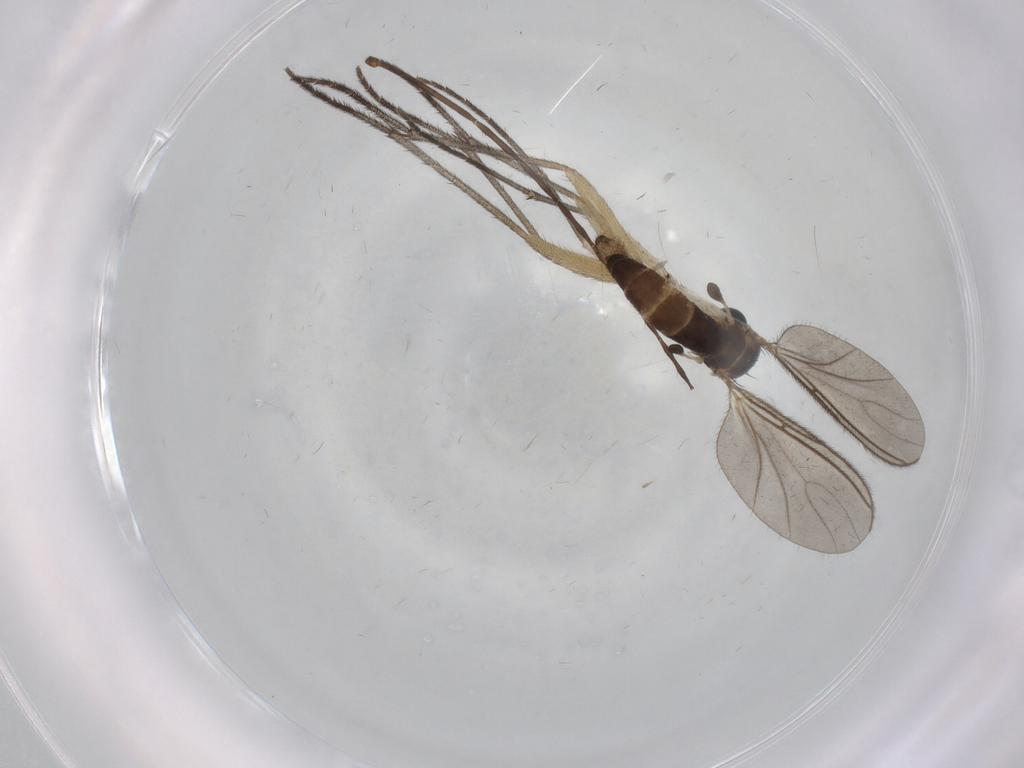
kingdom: Animalia
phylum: Arthropoda
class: Insecta
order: Diptera
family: Sciaridae
